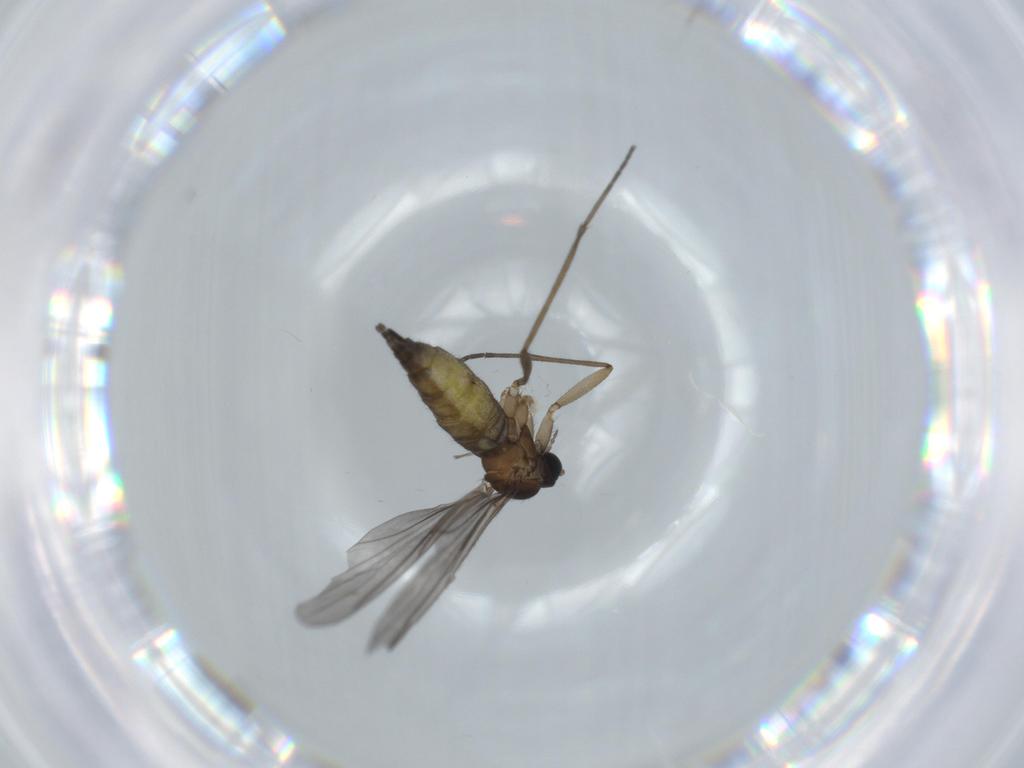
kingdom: Animalia
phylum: Arthropoda
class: Insecta
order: Diptera
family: Sciaridae
